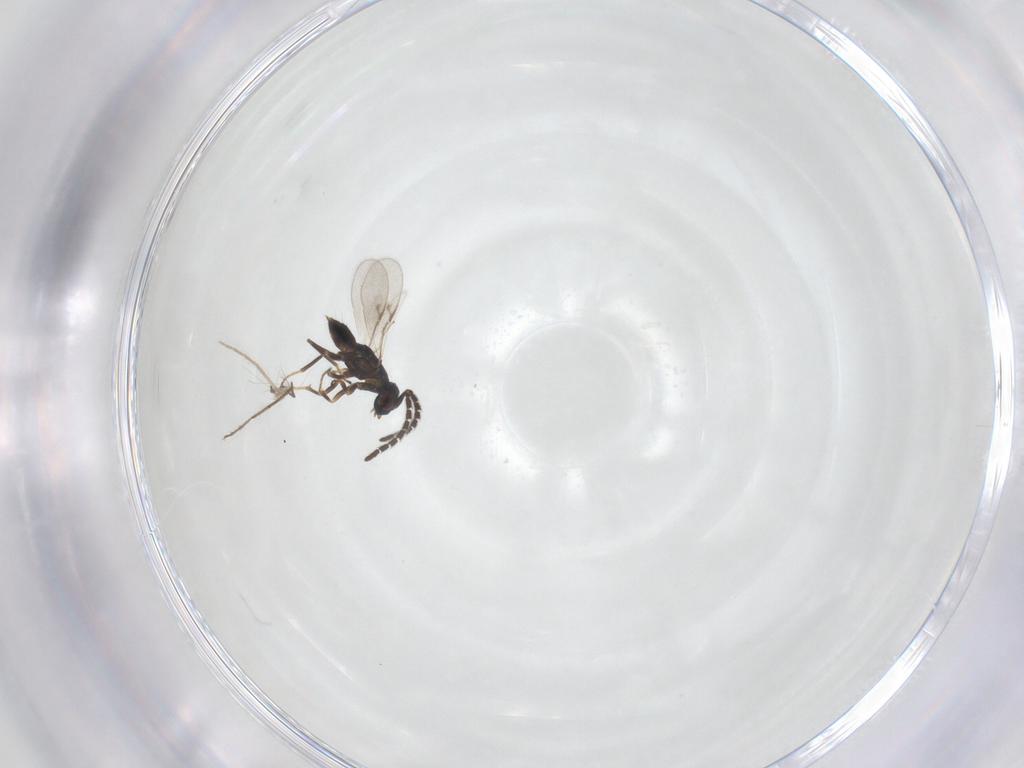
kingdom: Animalia
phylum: Arthropoda
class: Insecta
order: Hymenoptera
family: Encyrtidae
